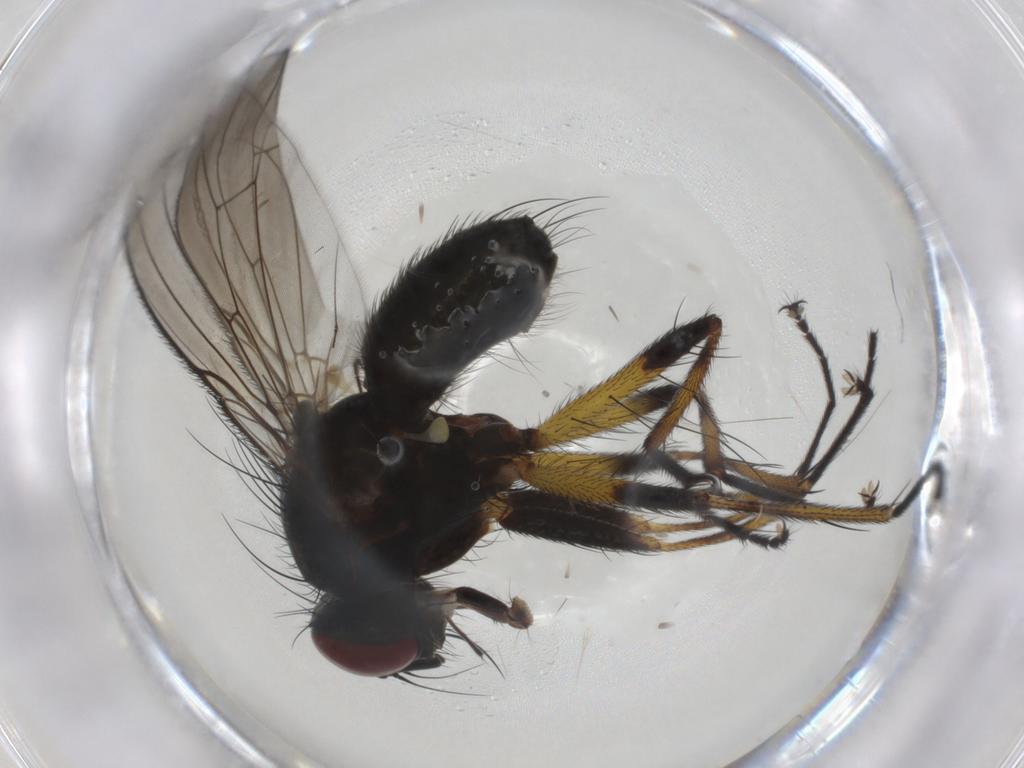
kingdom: Animalia
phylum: Arthropoda
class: Insecta
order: Diptera
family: Muscidae
